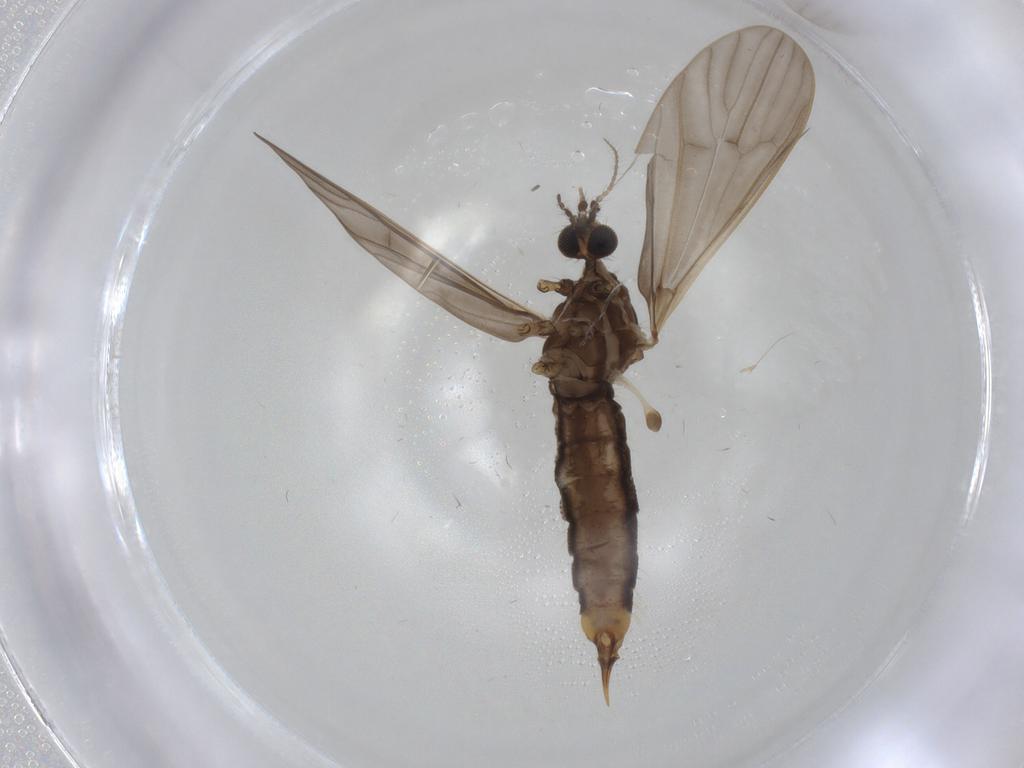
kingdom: Animalia
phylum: Arthropoda
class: Insecta
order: Diptera
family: Limoniidae
